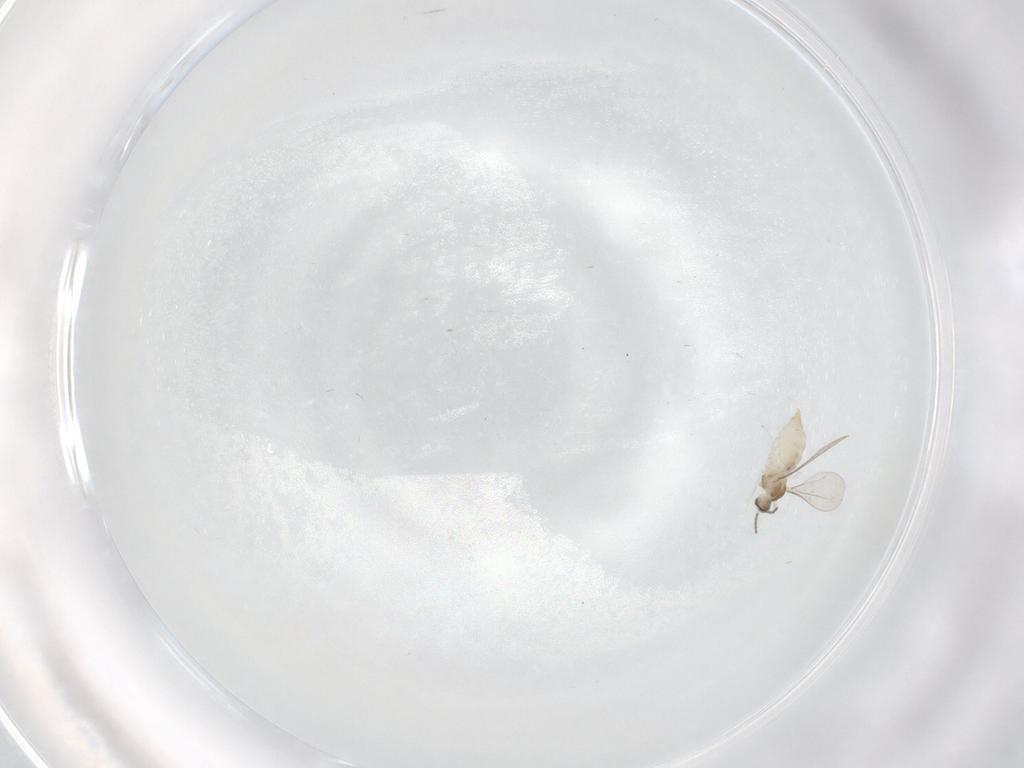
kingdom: Animalia
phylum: Arthropoda
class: Insecta
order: Diptera
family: Cecidomyiidae
